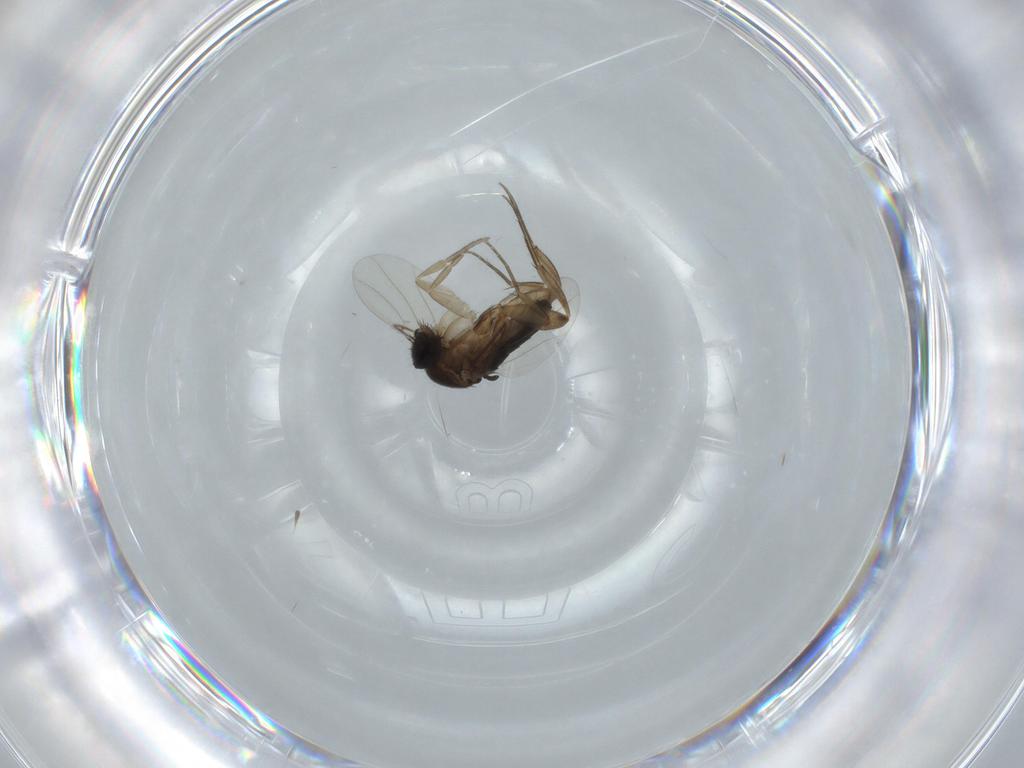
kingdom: Animalia
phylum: Arthropoda
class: Insecta
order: Diptera
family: Phoridae
